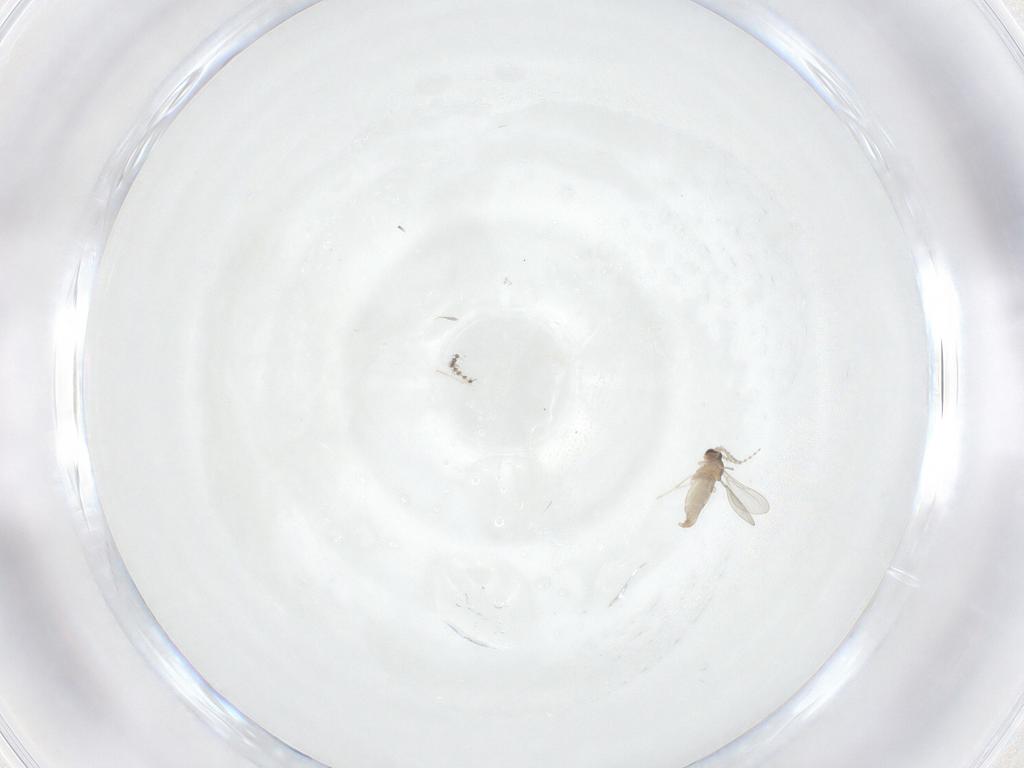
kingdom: Animalia
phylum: Arthropoda
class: Insecta
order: Diptera
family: Cecidomyiidae
